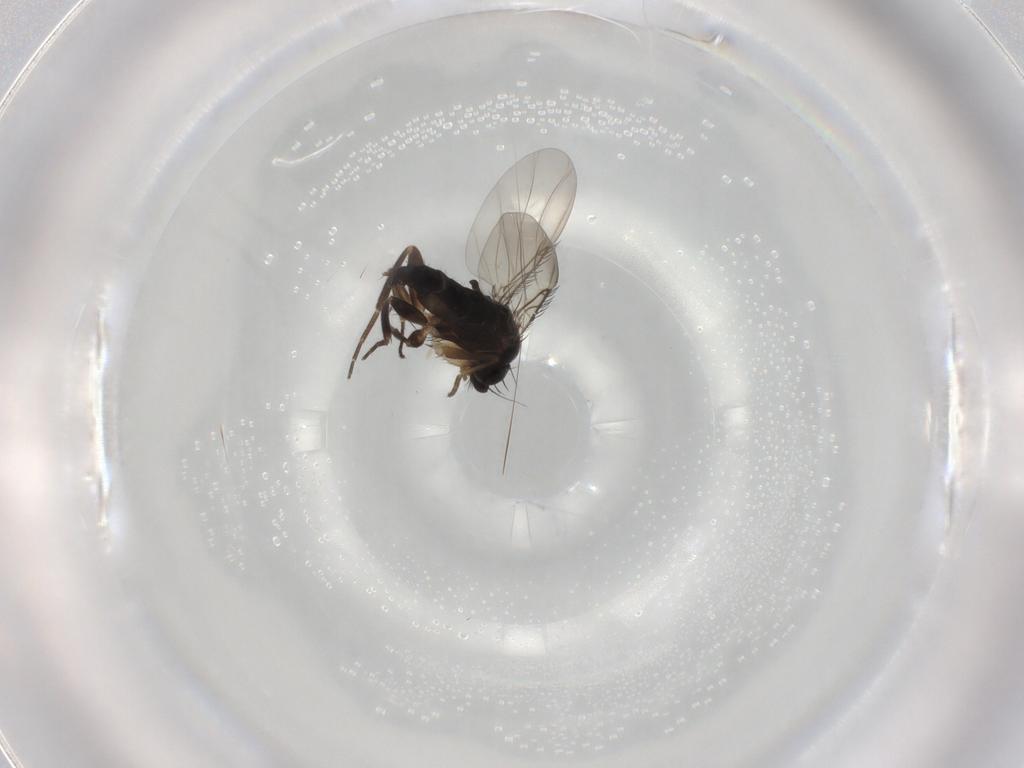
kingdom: Animalia
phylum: Arthropoda
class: Insecta
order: Diptera
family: Phoridae
